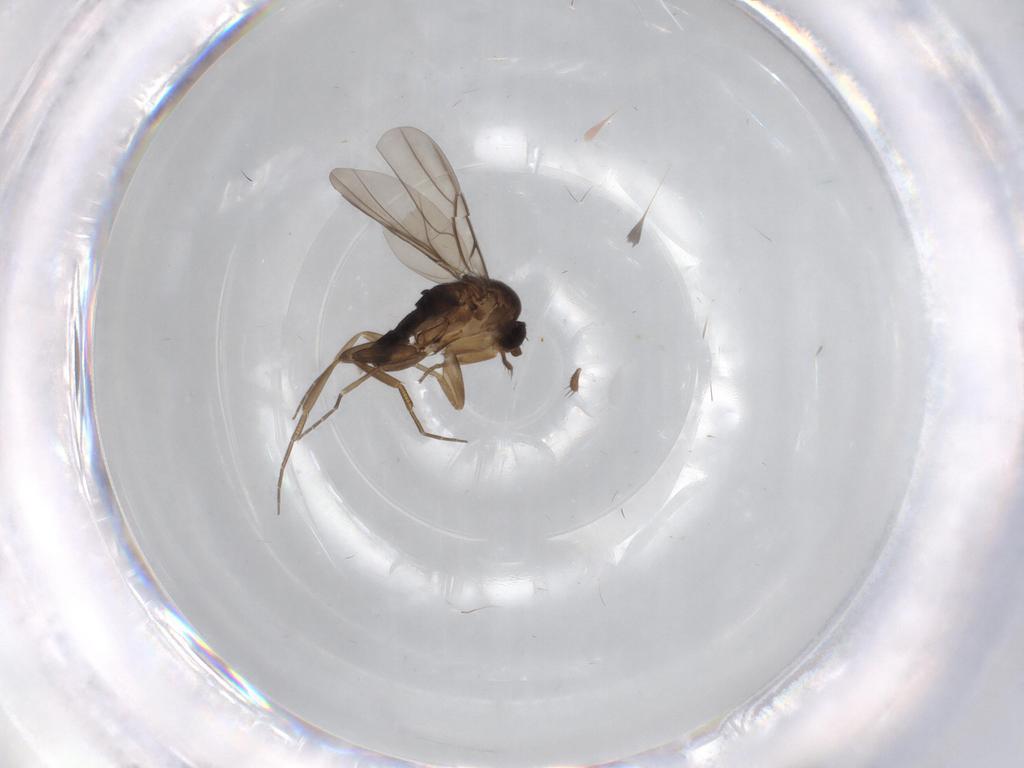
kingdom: Animalia
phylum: Arthropoda
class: Insecta
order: Diptera
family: Phoridae
